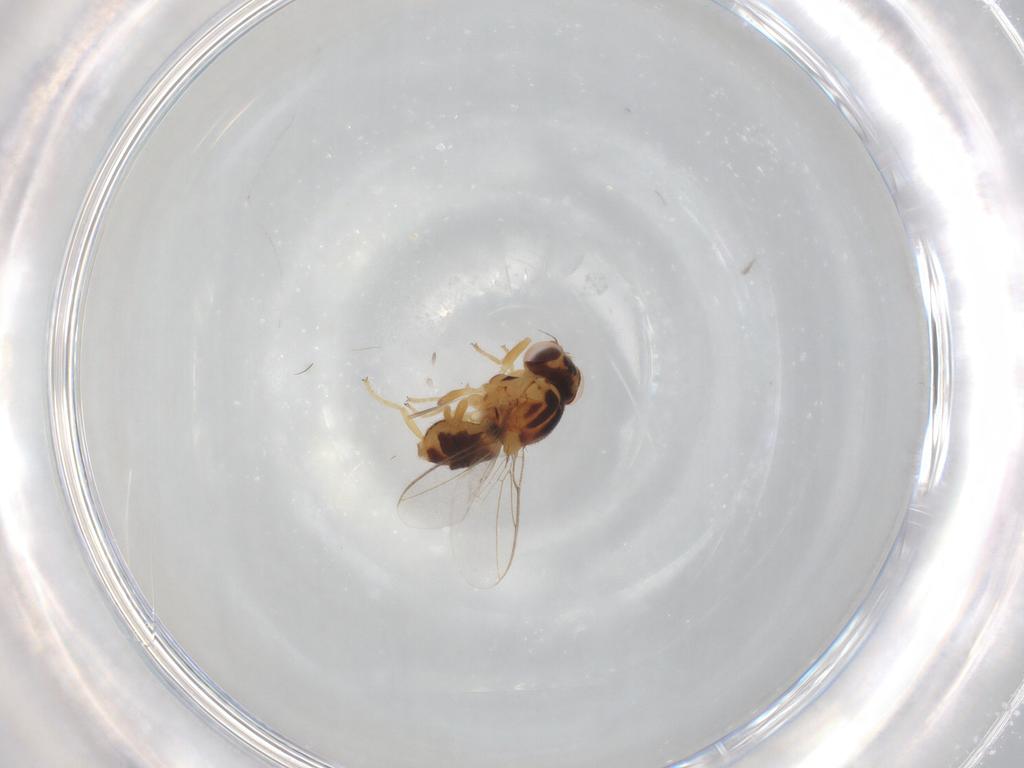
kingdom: Animalia
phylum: Arthropoda
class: Insecta
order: Diptera
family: Chloropidae
